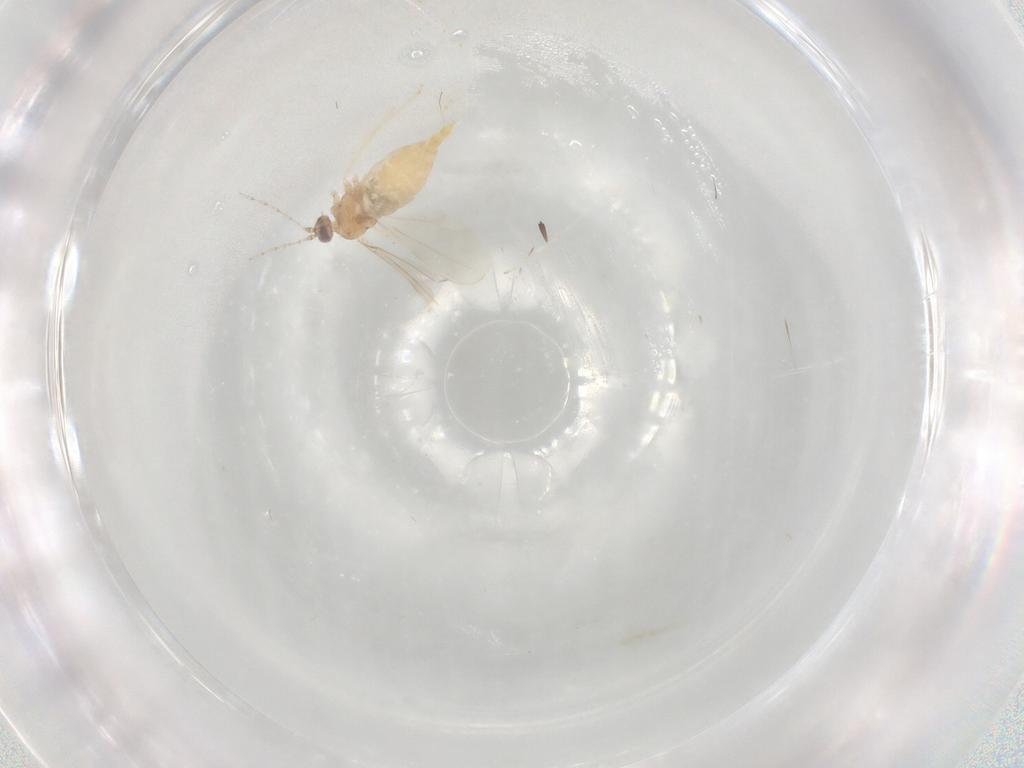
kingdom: Animalia
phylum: Arthropoda
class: Insecta
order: Diptera
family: Cecidomyiidae
